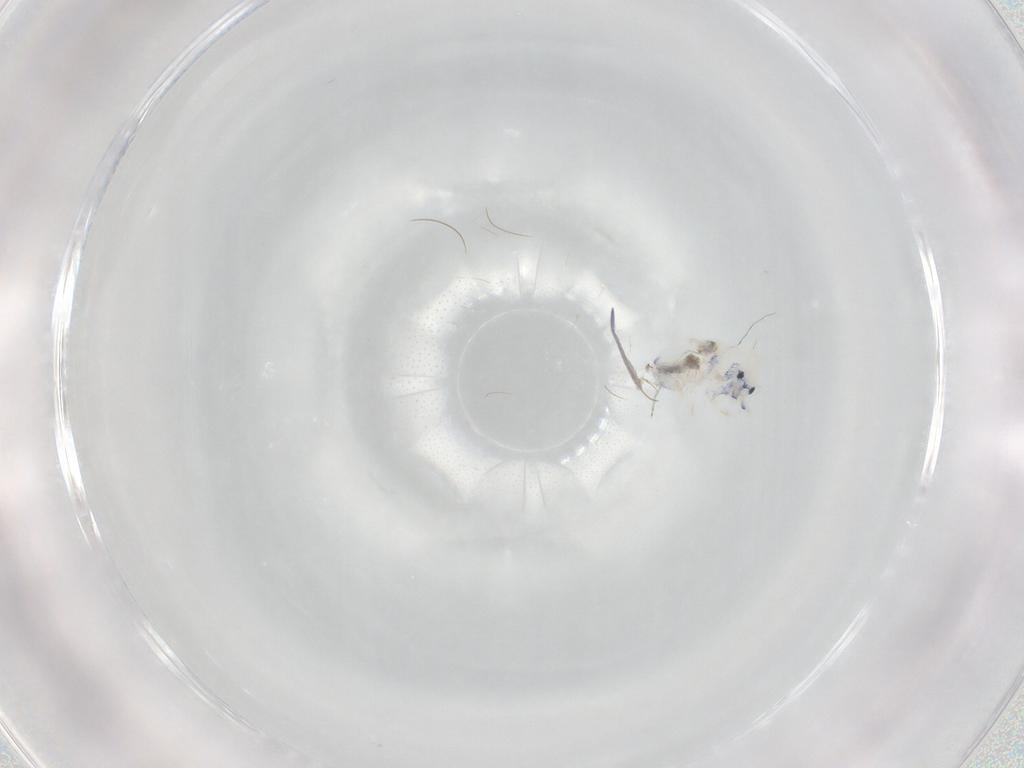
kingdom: Animalia
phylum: Arthropoda
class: Collembola
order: Entomobryomorpha
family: Entomobryidae
